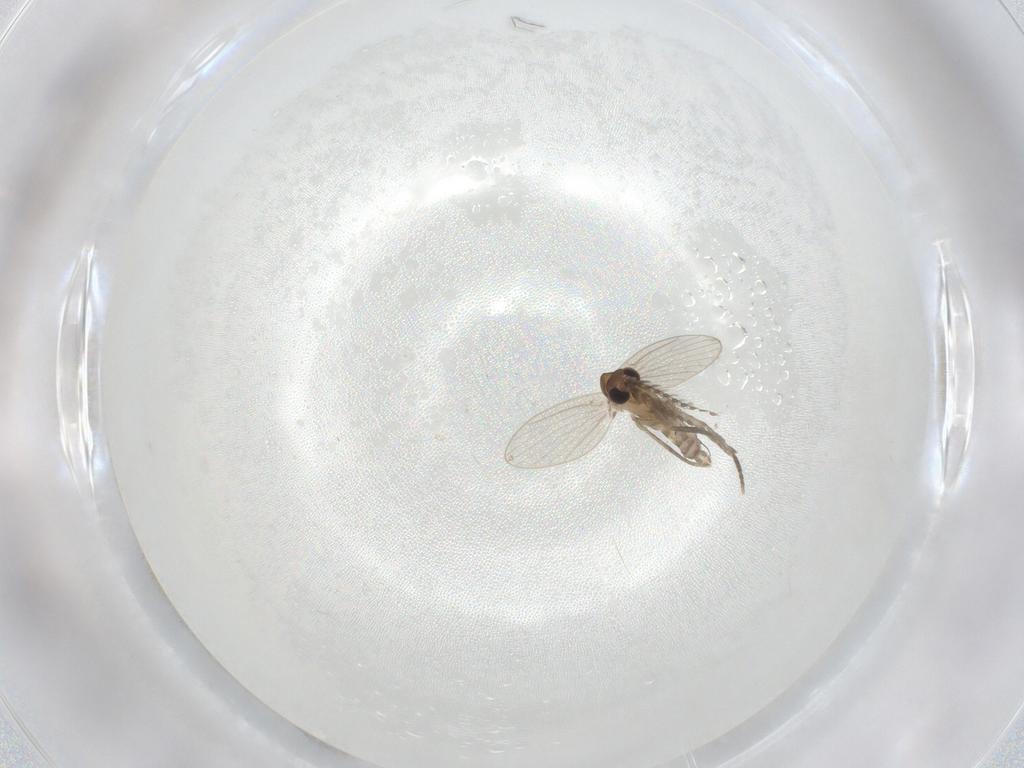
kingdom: Animalia
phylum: Arthropoda
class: Insecta
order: Diptera
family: Psychodidae
